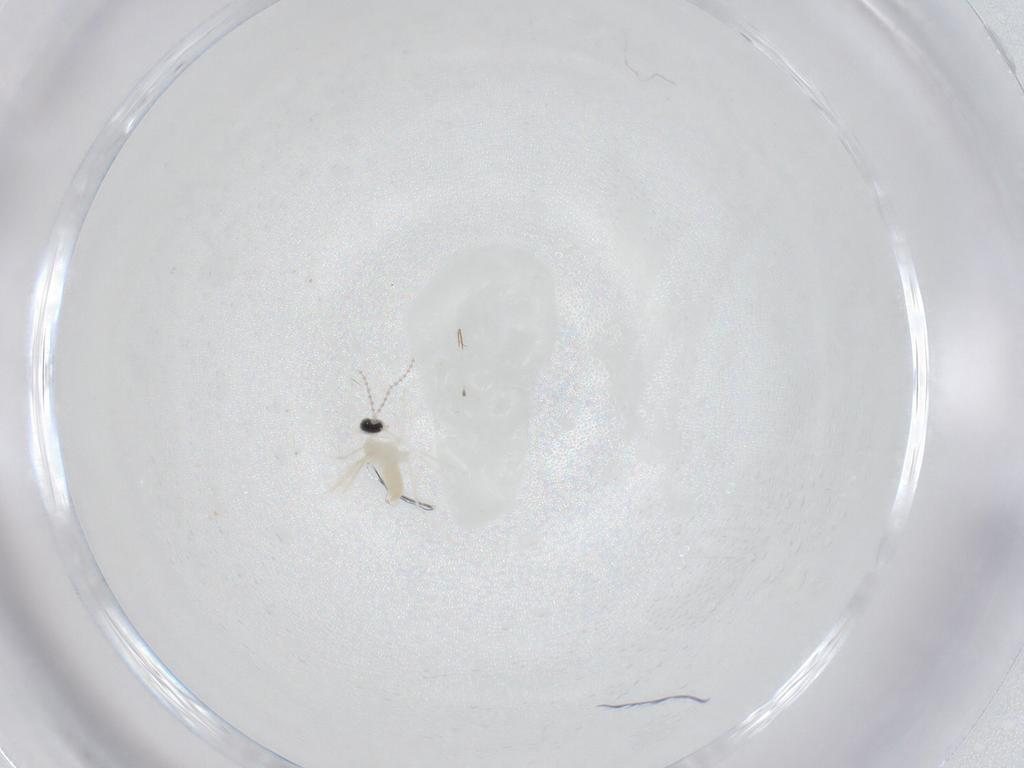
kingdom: Animalia
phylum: Arthropoda
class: Insecta
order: Diptera
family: Cecidomyiidae
